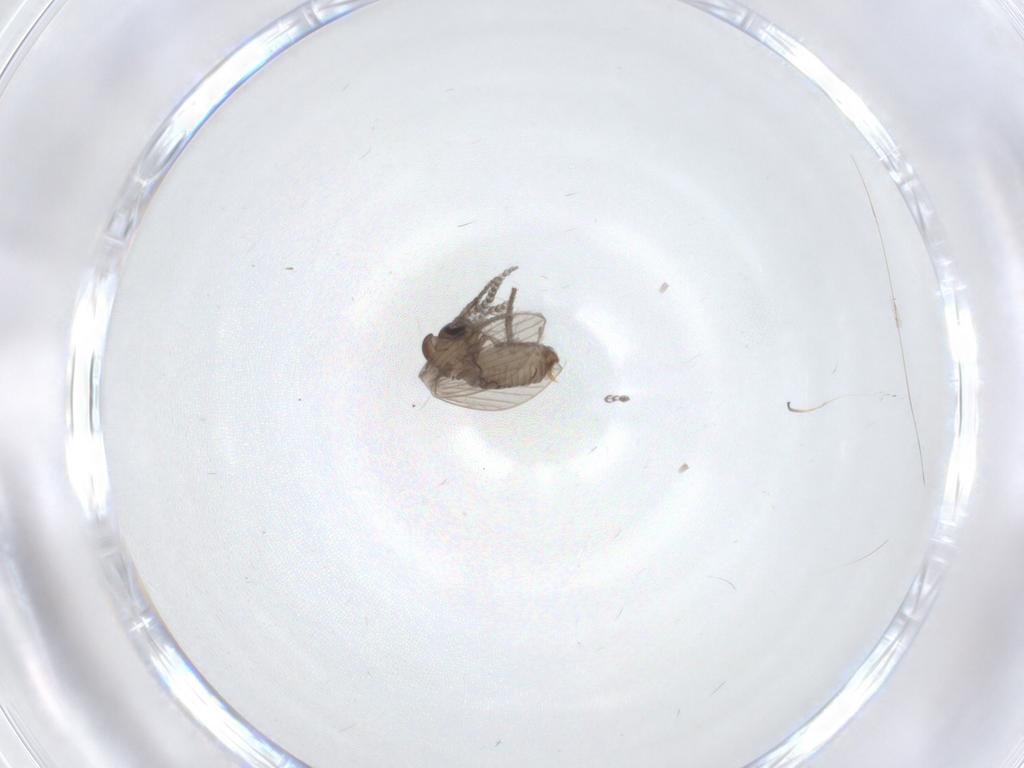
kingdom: Animalia
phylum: Arthropoda
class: Insecta
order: Diptera
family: Psychodidae
